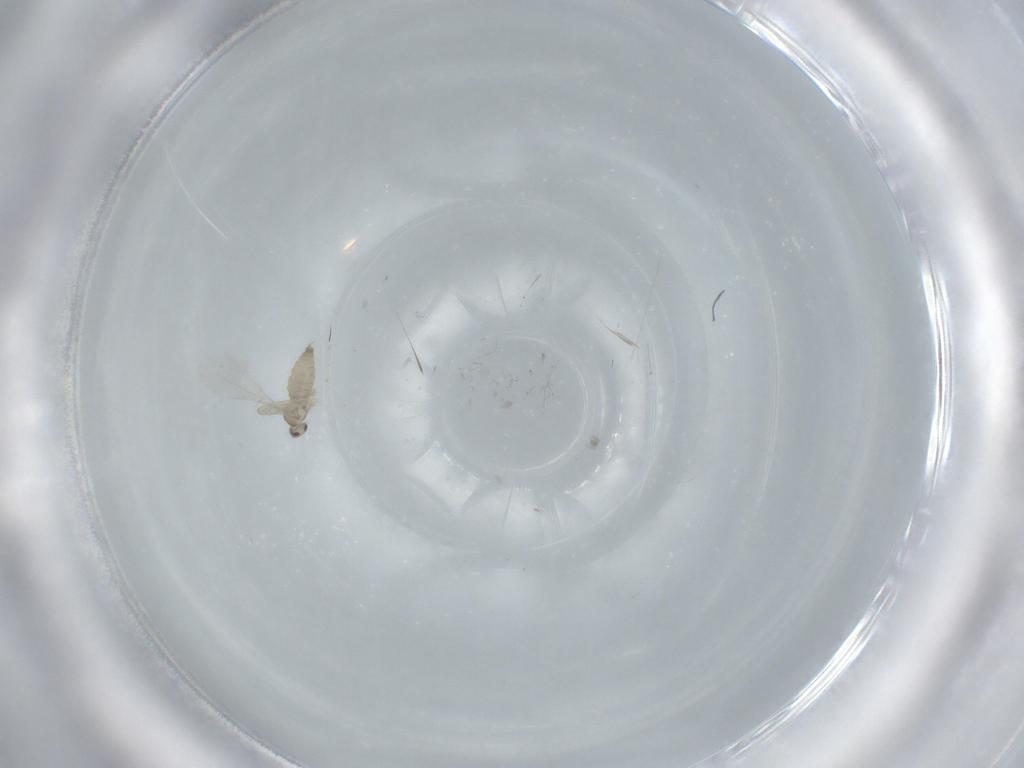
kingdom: Animalia
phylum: Arthropoda
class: Insecta
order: Diptera
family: Cecidomyiidae
